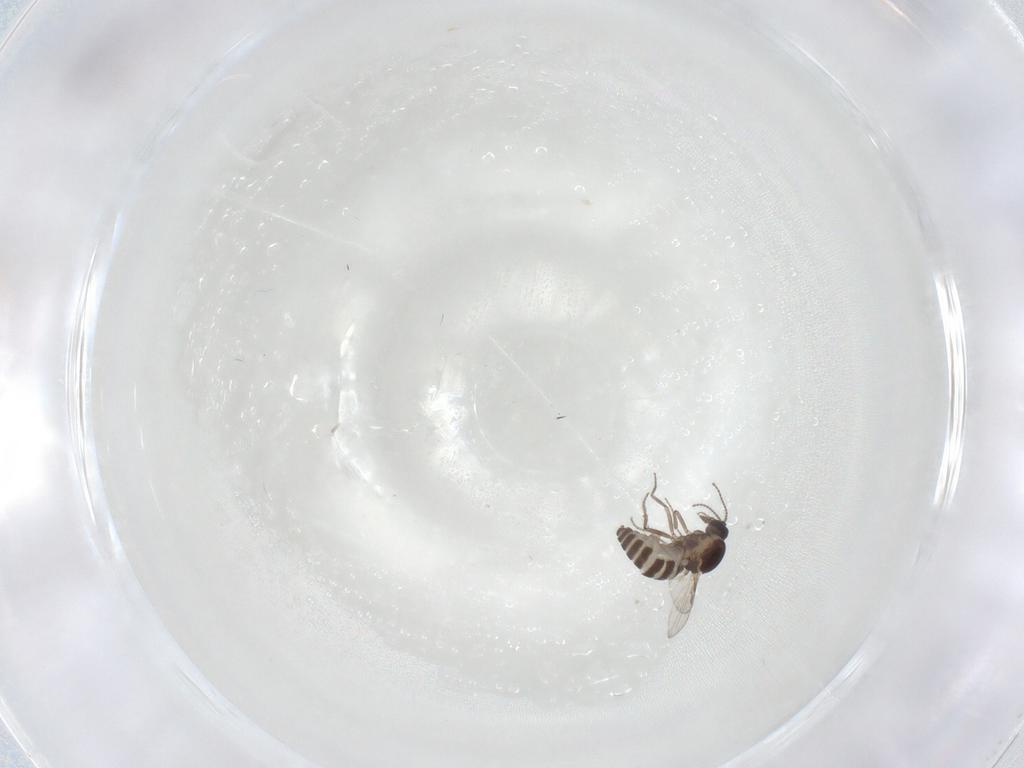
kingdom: Animalia
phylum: Arthropoda
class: Insecta
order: Diptera
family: Ceratopogonidae
